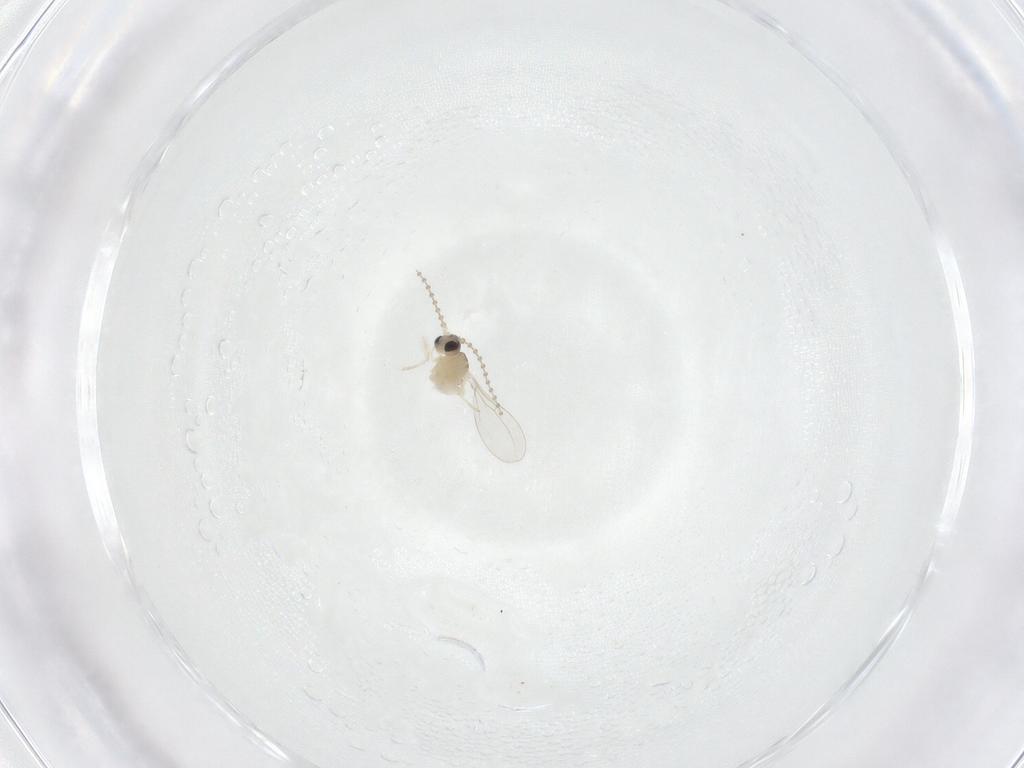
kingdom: Animalia
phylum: Arthropoda
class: Insecta
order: Diptera
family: Cecidomyiidae
